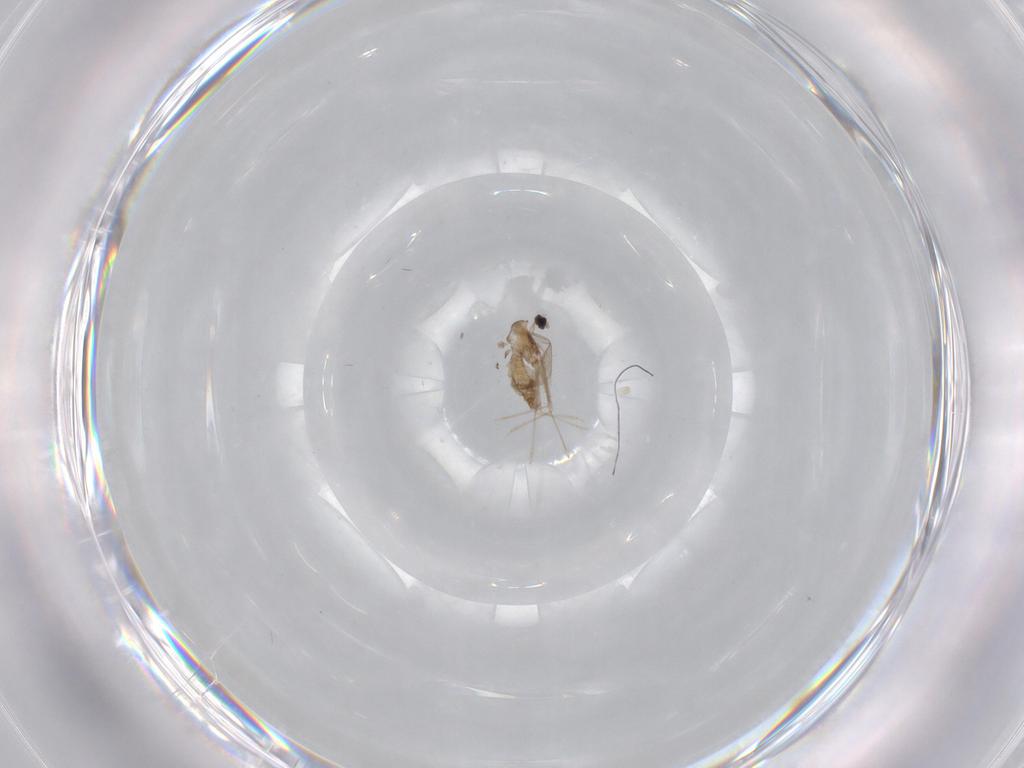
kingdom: Animalia
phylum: Arthropoda
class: Insecta
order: Diptera
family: Cecidomyiidae
